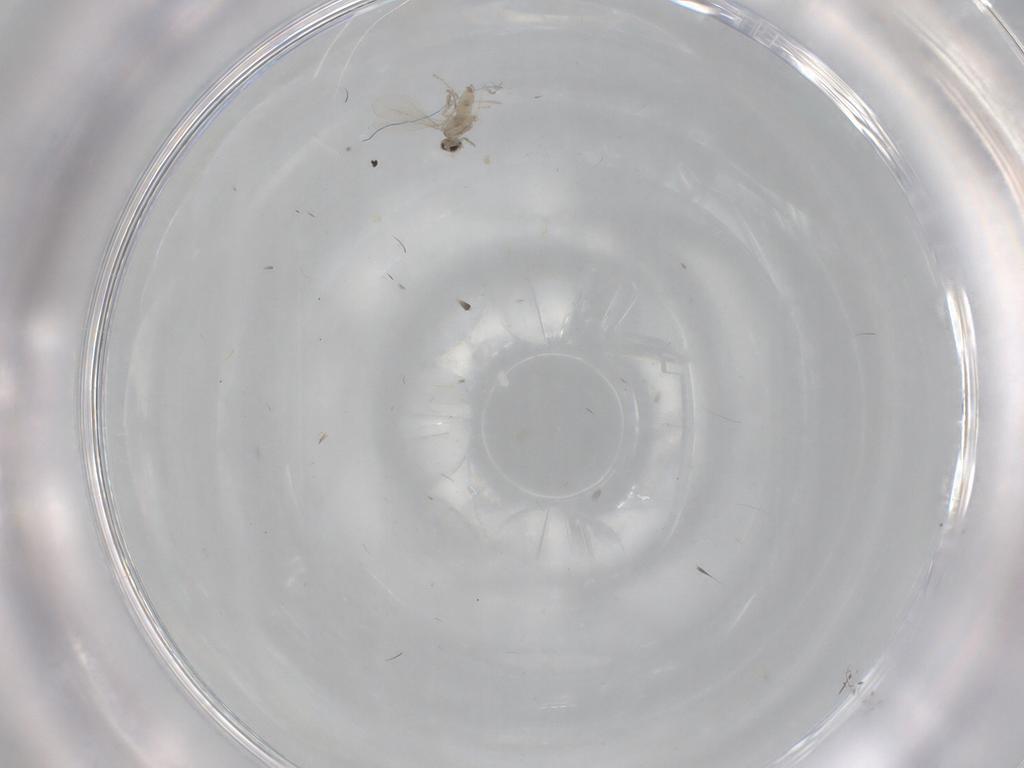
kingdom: Animalia
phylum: Arthropoda
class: Insecta
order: Diptera
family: Cecidomyiidae
